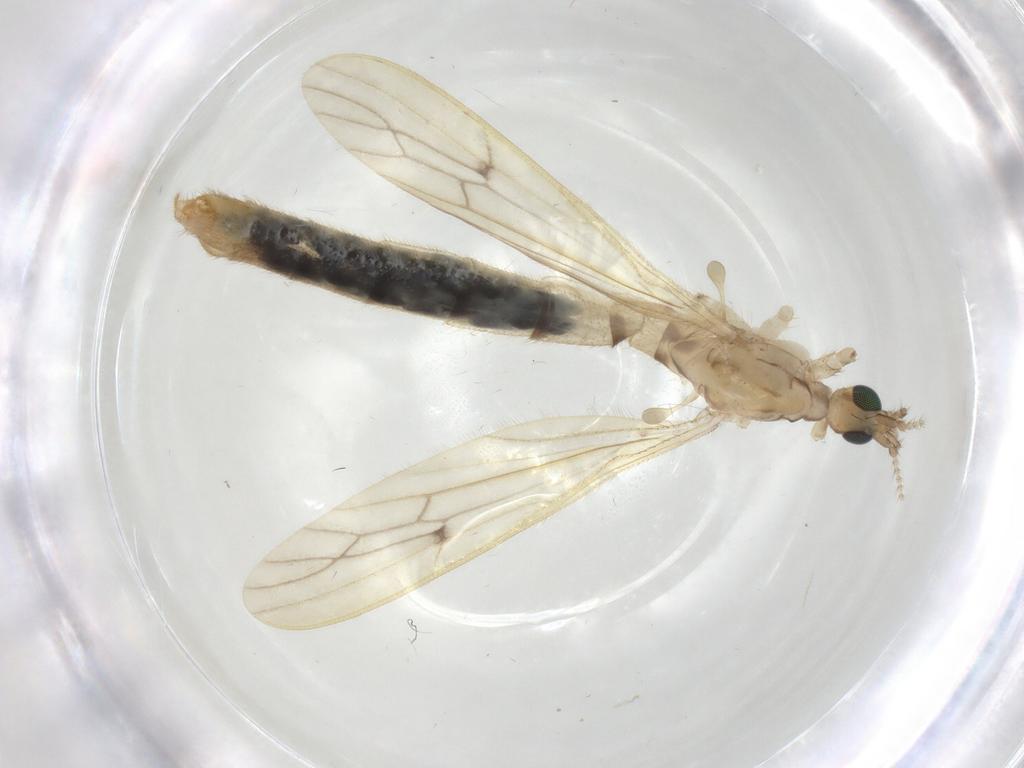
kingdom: Animalia
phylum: Arthropoda
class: Insecta
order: Diptera
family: Limoniidae
